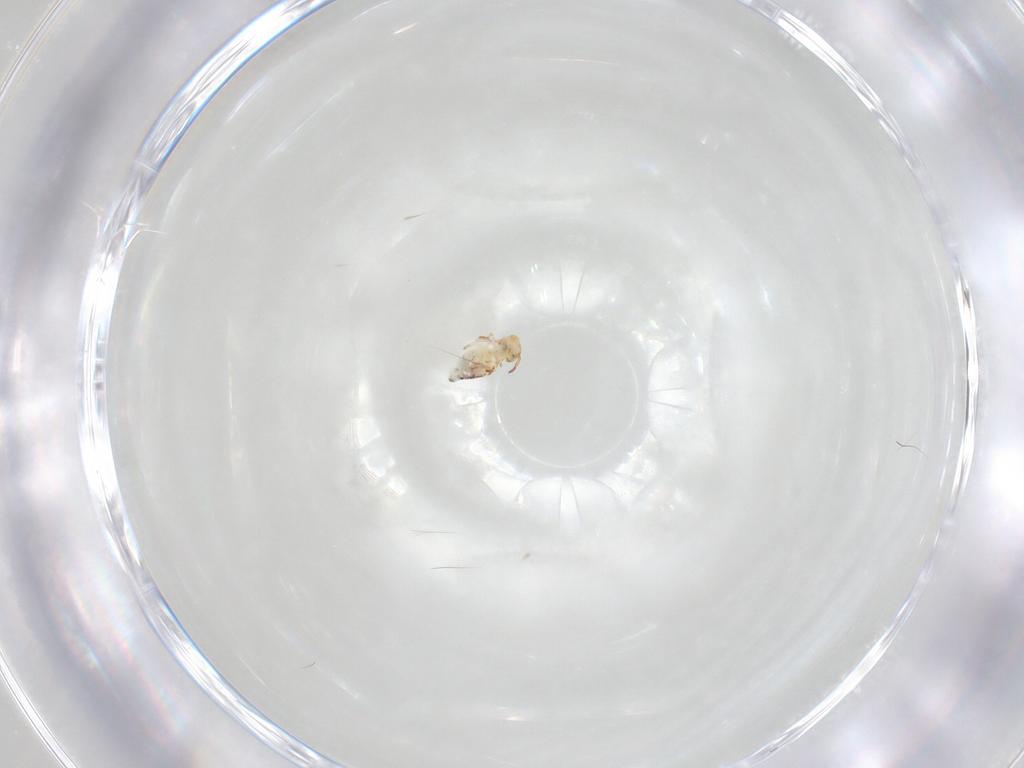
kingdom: Animalia
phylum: Arthropoda
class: Collembola
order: Symphypleona
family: Bourletiellidae
